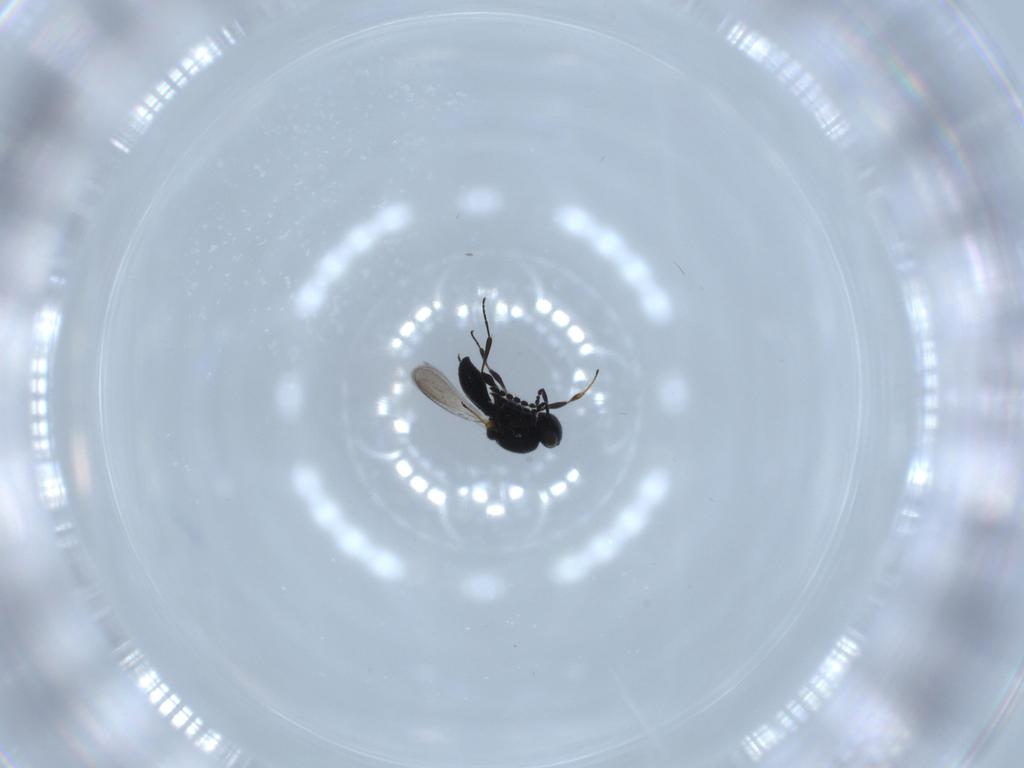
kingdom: Animalia
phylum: Arthropoda
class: Insecta
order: Hymenoptera
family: Platygastridae
